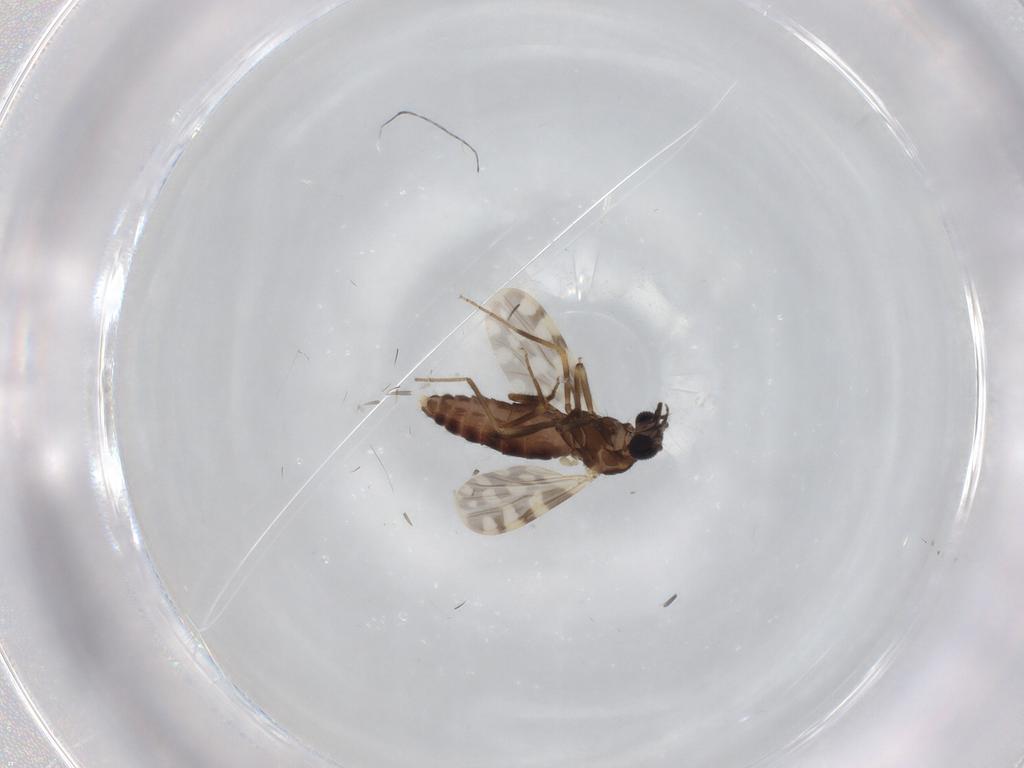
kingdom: Animalia
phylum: Arthropoda
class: Insecta
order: Diptera
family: Ceratopogonidae
